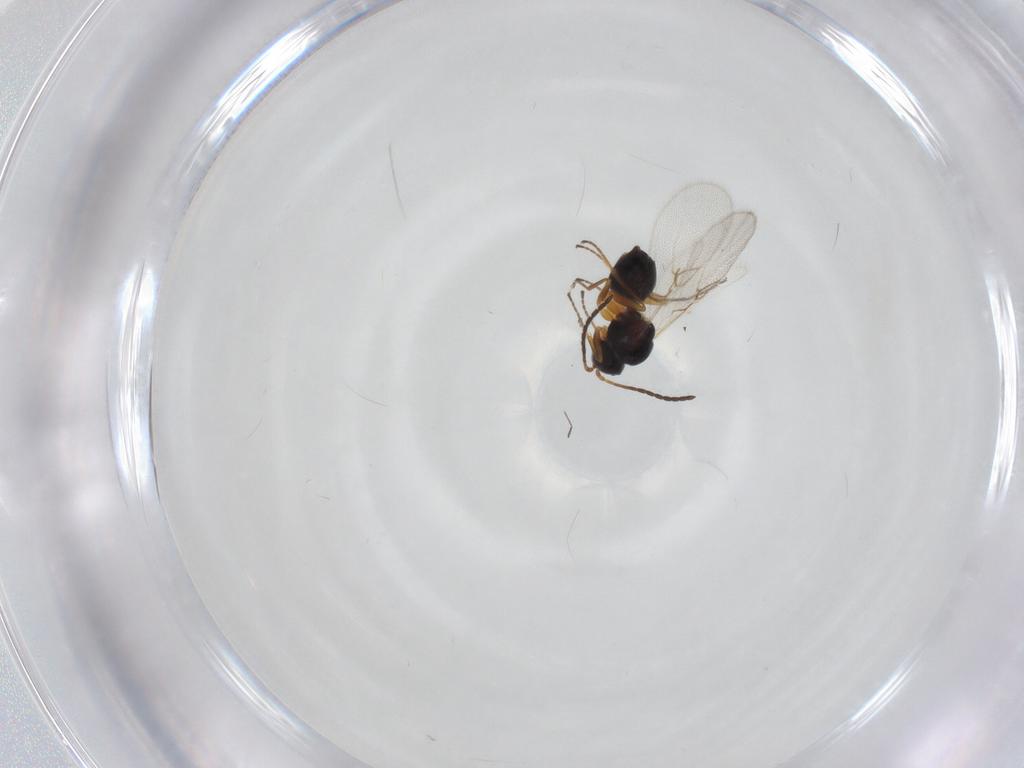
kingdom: Animalia
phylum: Arthropoda
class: Insecta
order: Hymenoptera
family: Figitidae
